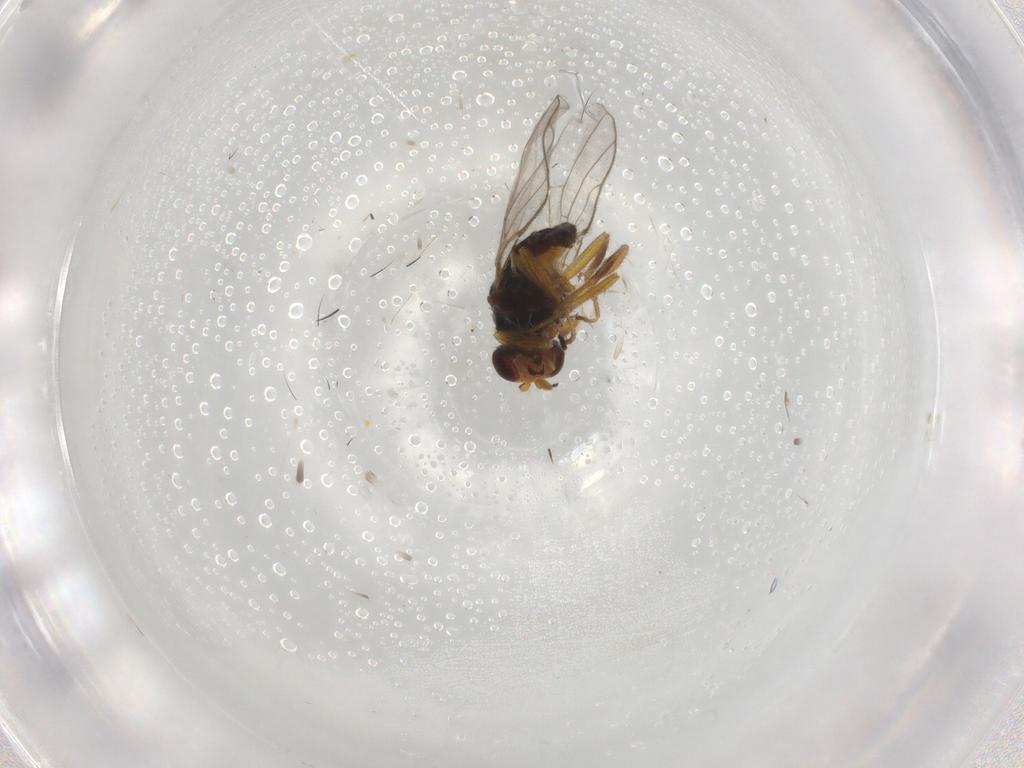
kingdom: Animalia
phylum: Arthropoda
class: Insecta
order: Diptera
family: Chloropidae
